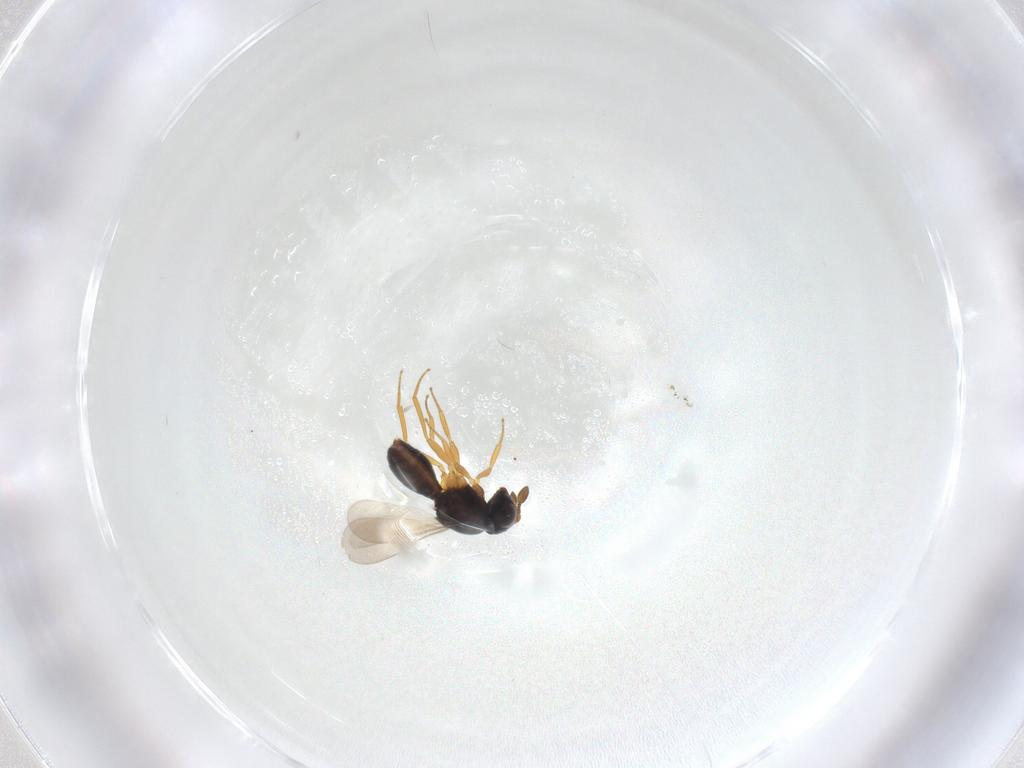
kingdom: Animalia
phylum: Arthropoda
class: Insecta
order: Hymenoptera
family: Scelionidae
